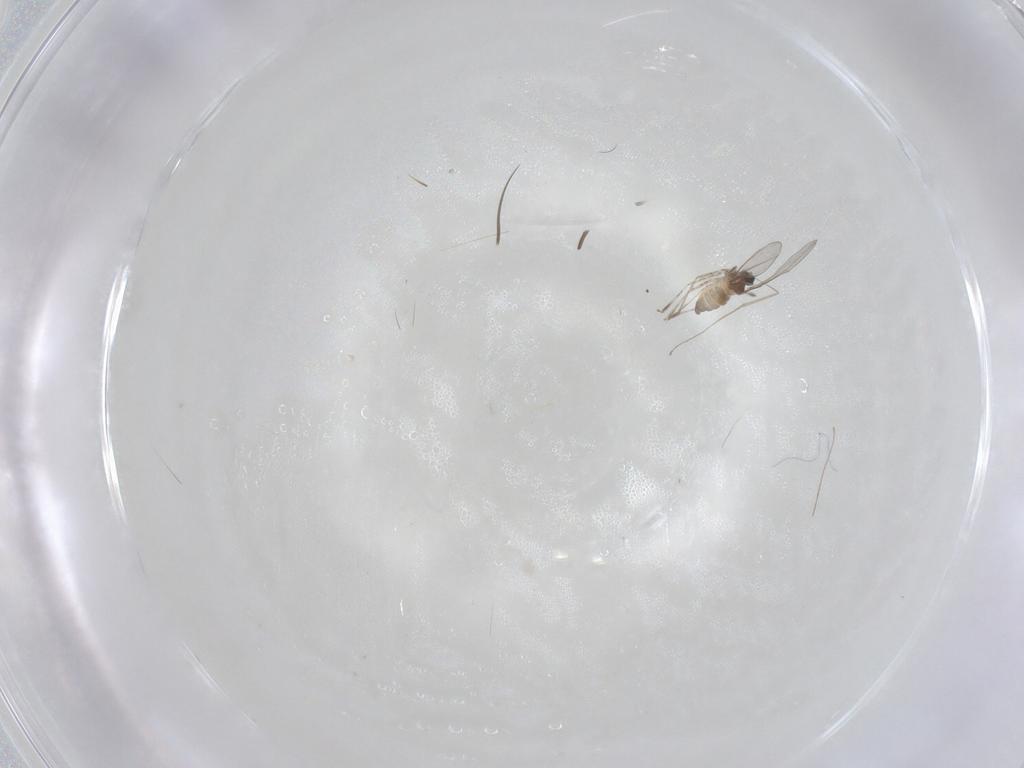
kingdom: Animalia
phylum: Arthropoda
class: Insecta
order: Diptera
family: Cecidomyiidae
